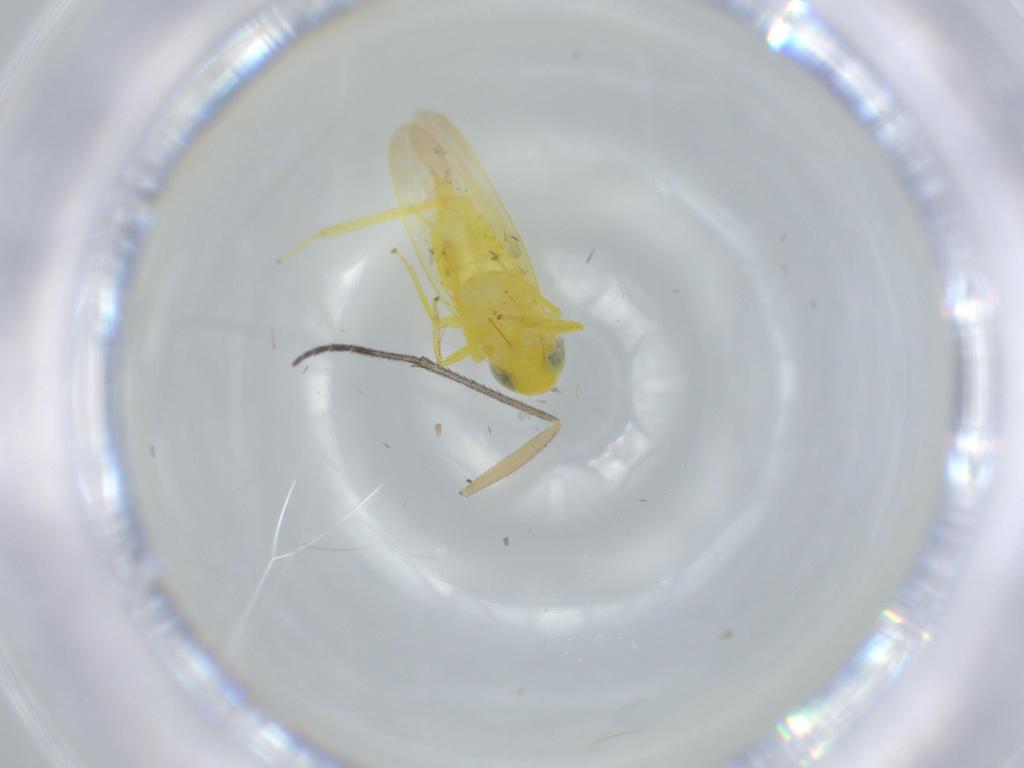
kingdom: Animalia
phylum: Arthropoda
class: Insecta
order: Hemiptera
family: Cicadellidae
